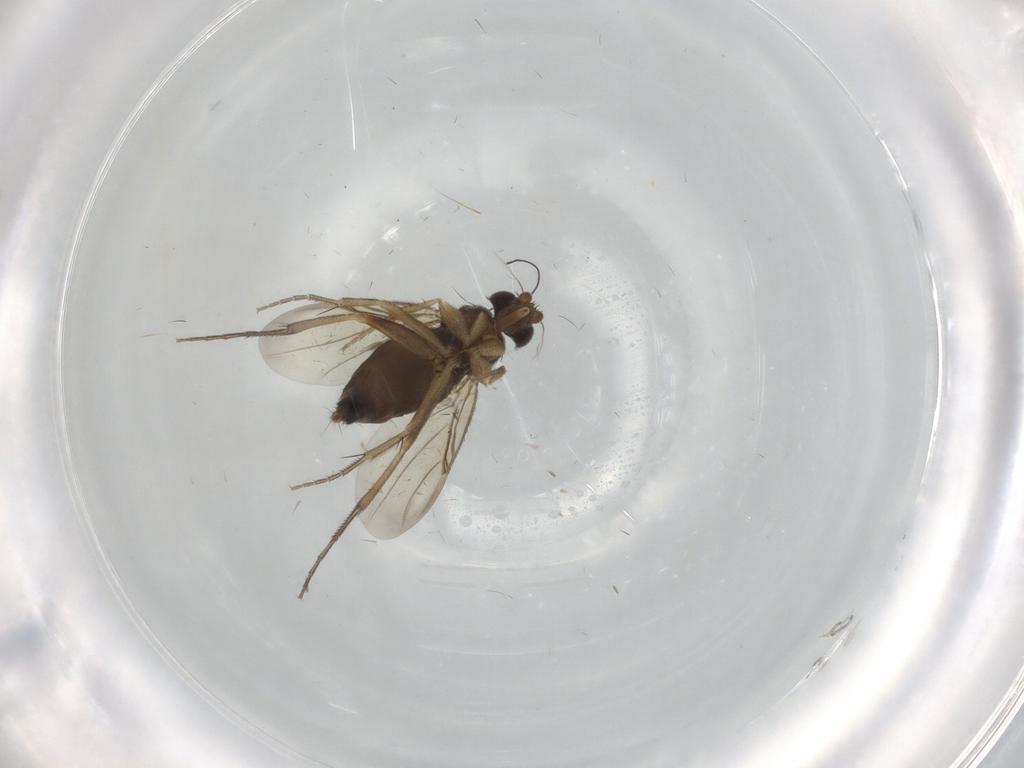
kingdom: Animalia
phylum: Arthropoda
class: Insecta
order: Diptera
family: Phoridae
